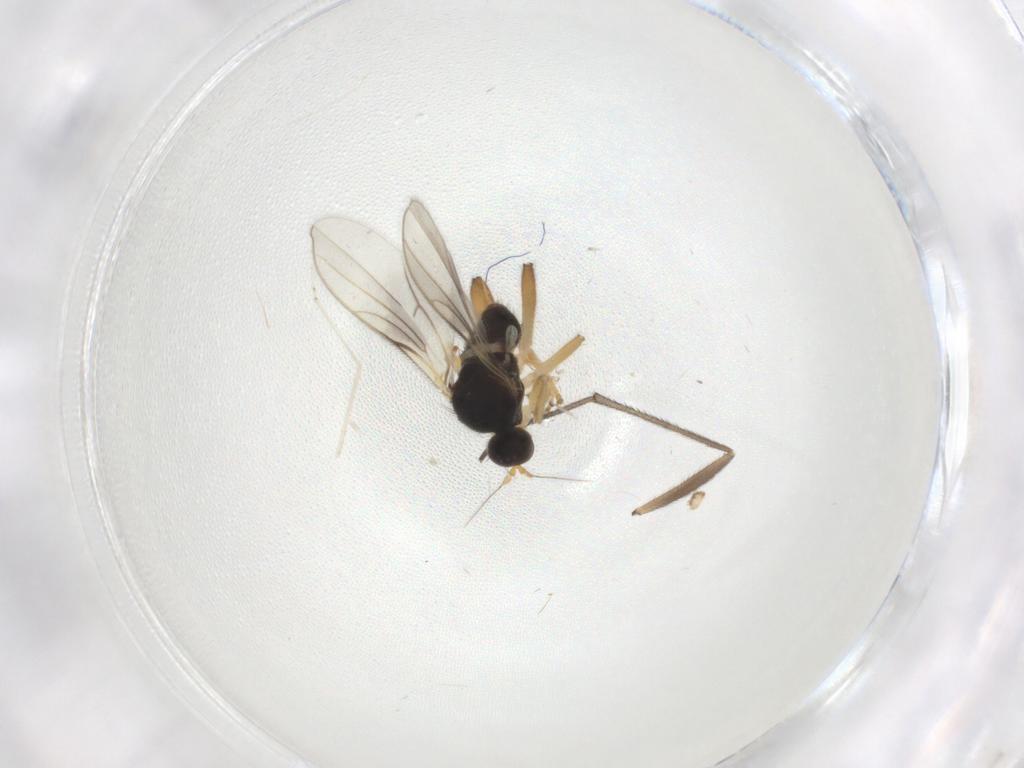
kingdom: Animalia
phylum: Arthropoda
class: Insecta
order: Diptera
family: Hybotidae
